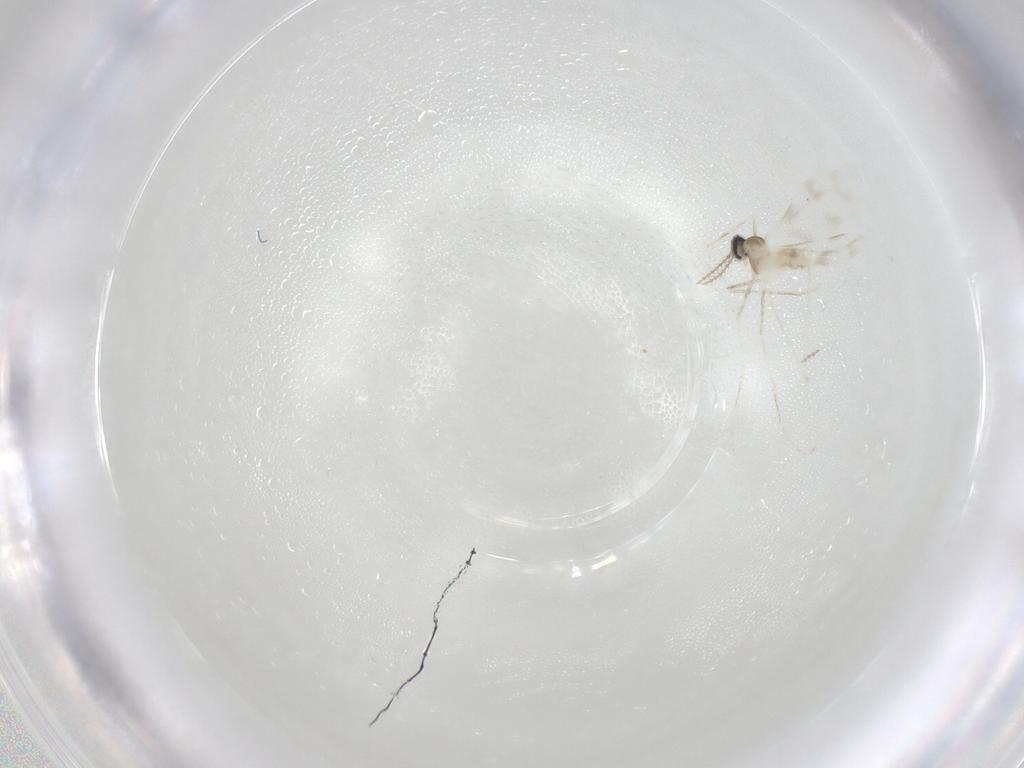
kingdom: Animalia
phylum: Arthropoda
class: Insecta
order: Diptera
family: Cecidomyiidae
